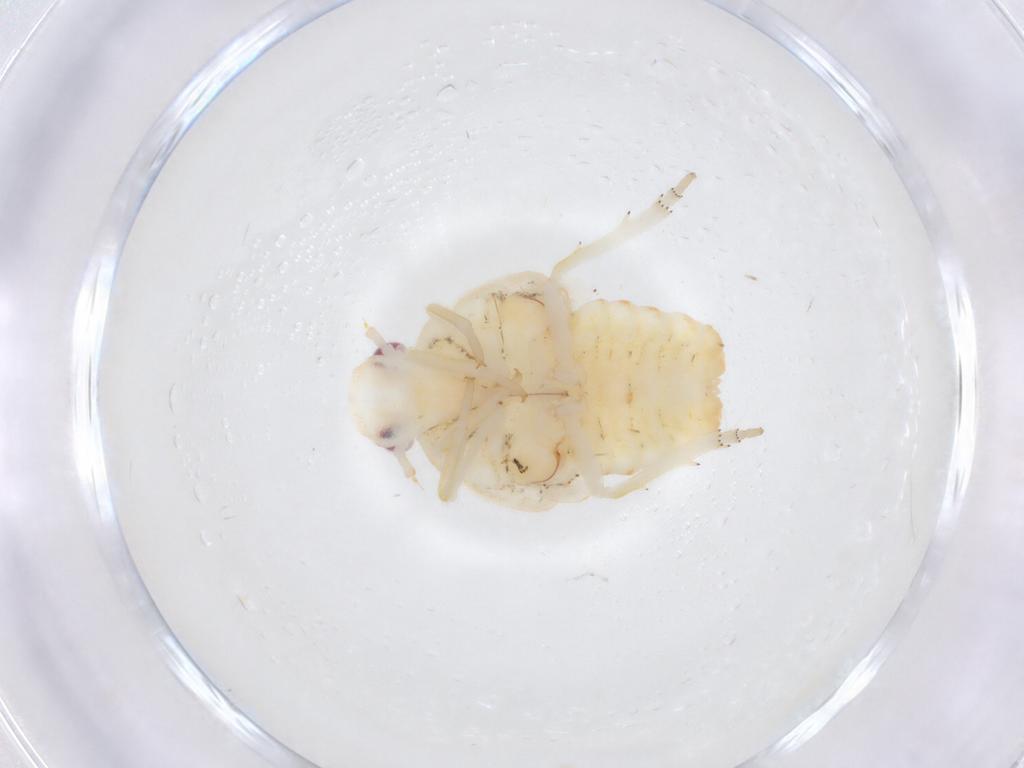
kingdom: Animalia
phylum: Arthropoda
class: Insecta
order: Hemiptera
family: Fulgoroidea_incertae_sedis
